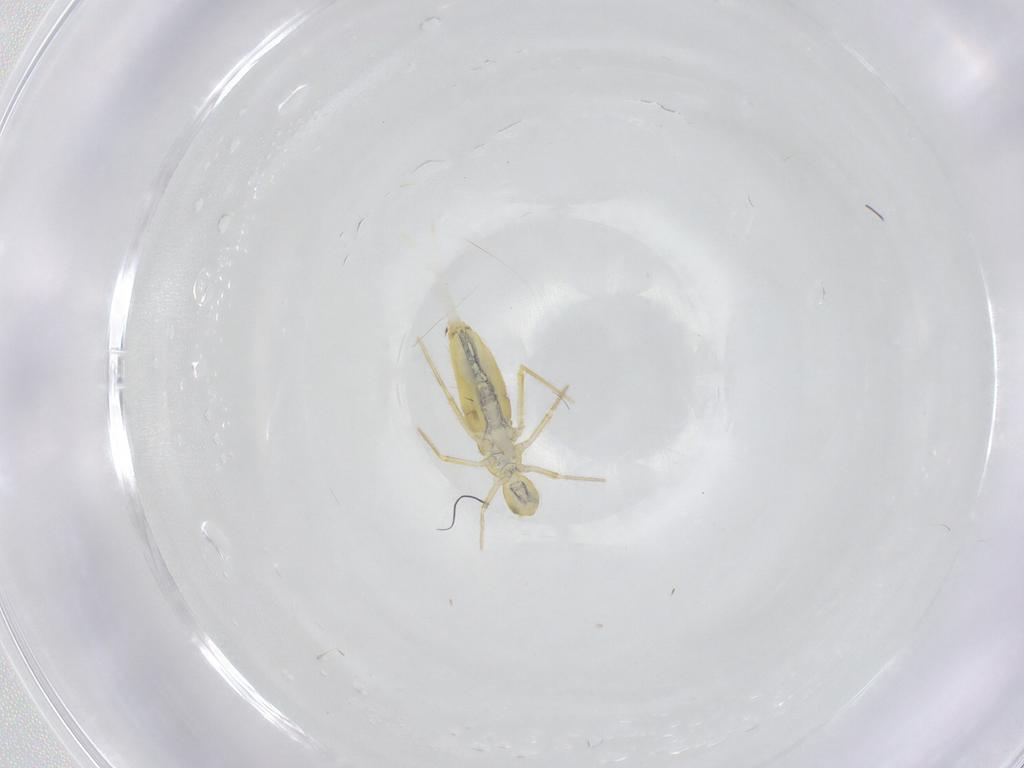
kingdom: Animalia
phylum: Arthropoda
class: Collembola
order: Entomobryomorpha
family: Paronellidae
